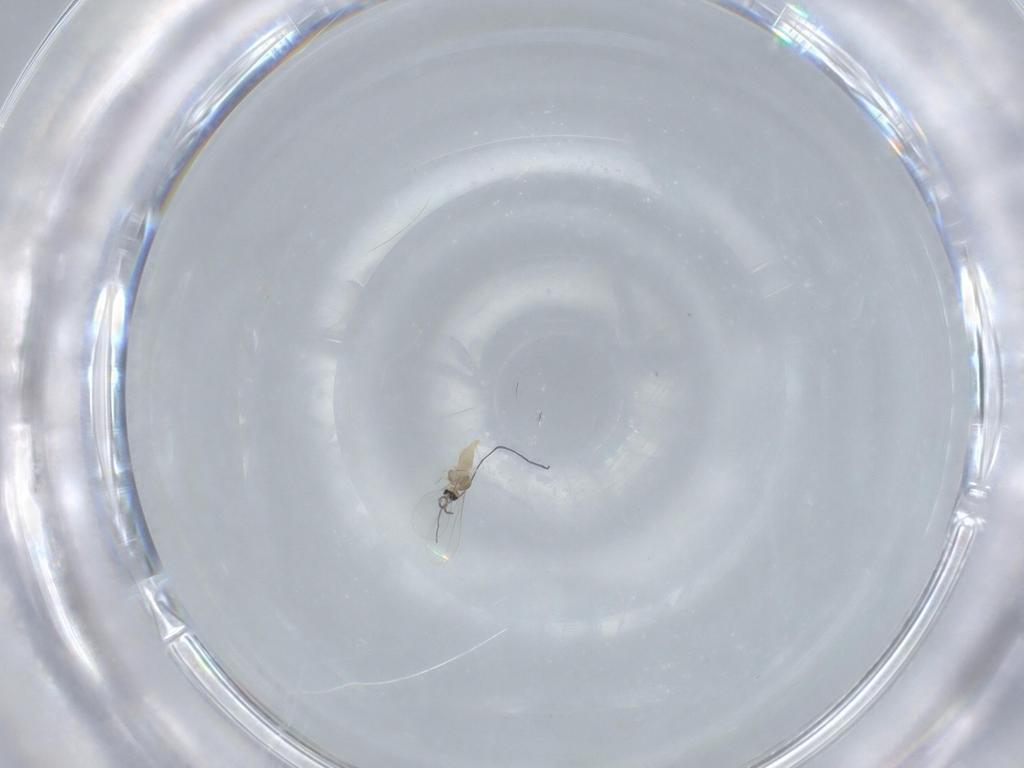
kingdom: Animalia
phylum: Arthropoda
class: Insecta
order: Diptera
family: Cecidomyiidae
